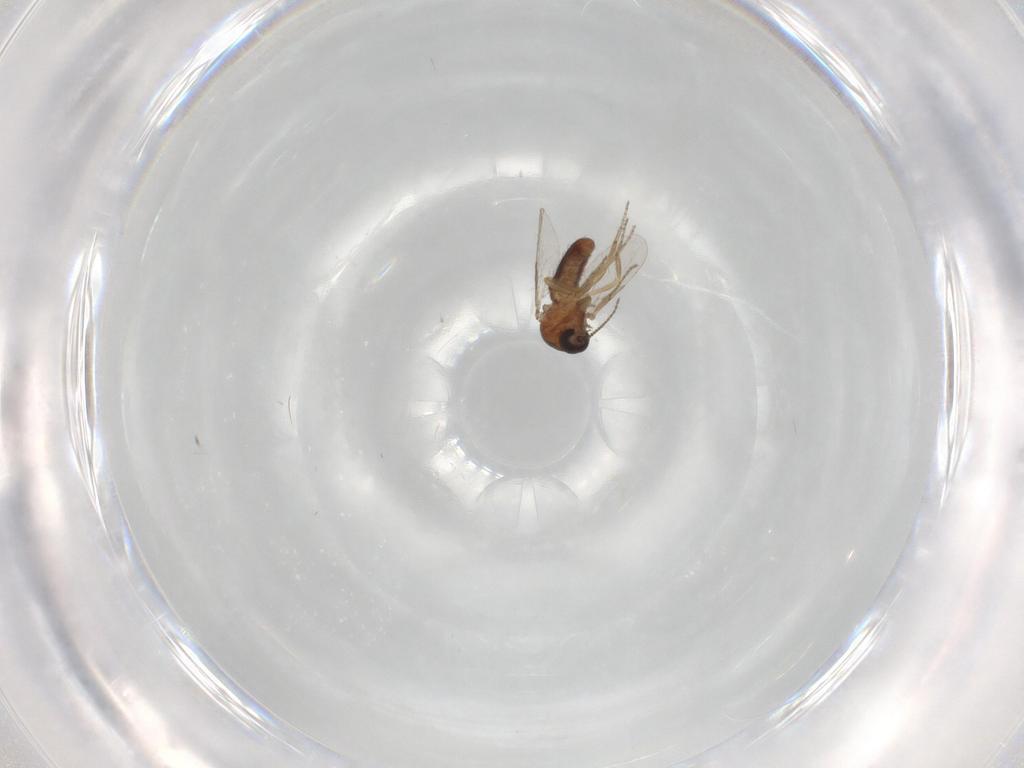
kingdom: Animalia
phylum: Arthropoda
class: Insecta
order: Diptera
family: Ceratopogonidae
